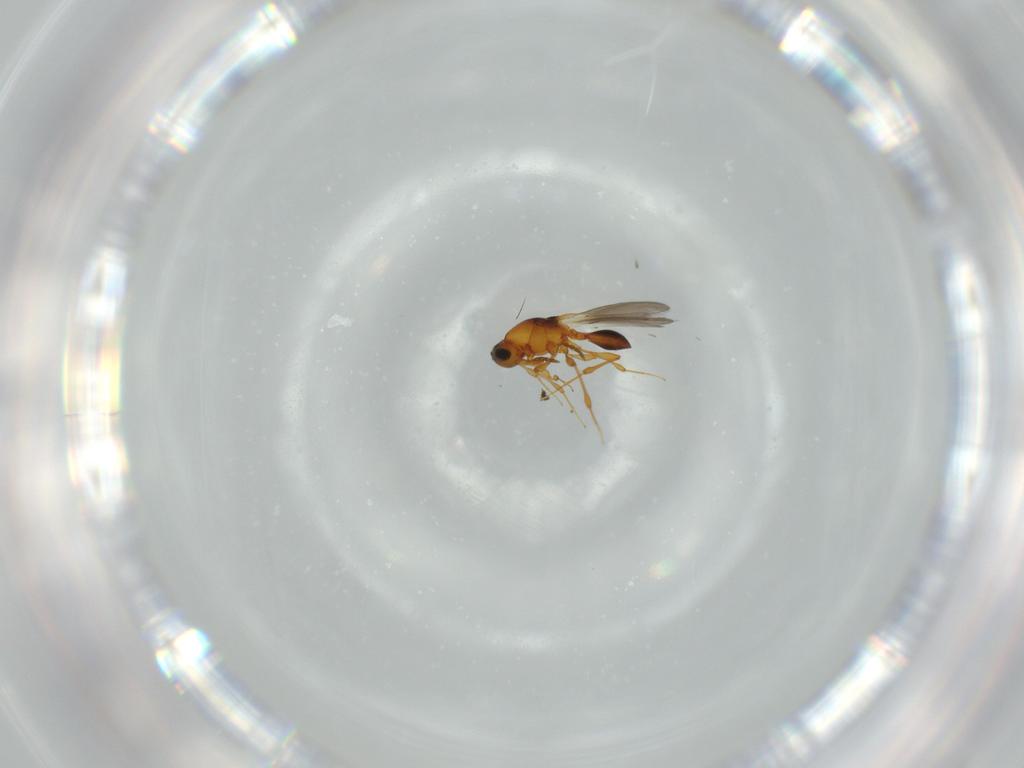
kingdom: Animalia
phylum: Arthropoda
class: Insecta
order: Hymenoptera
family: Platygastridae
